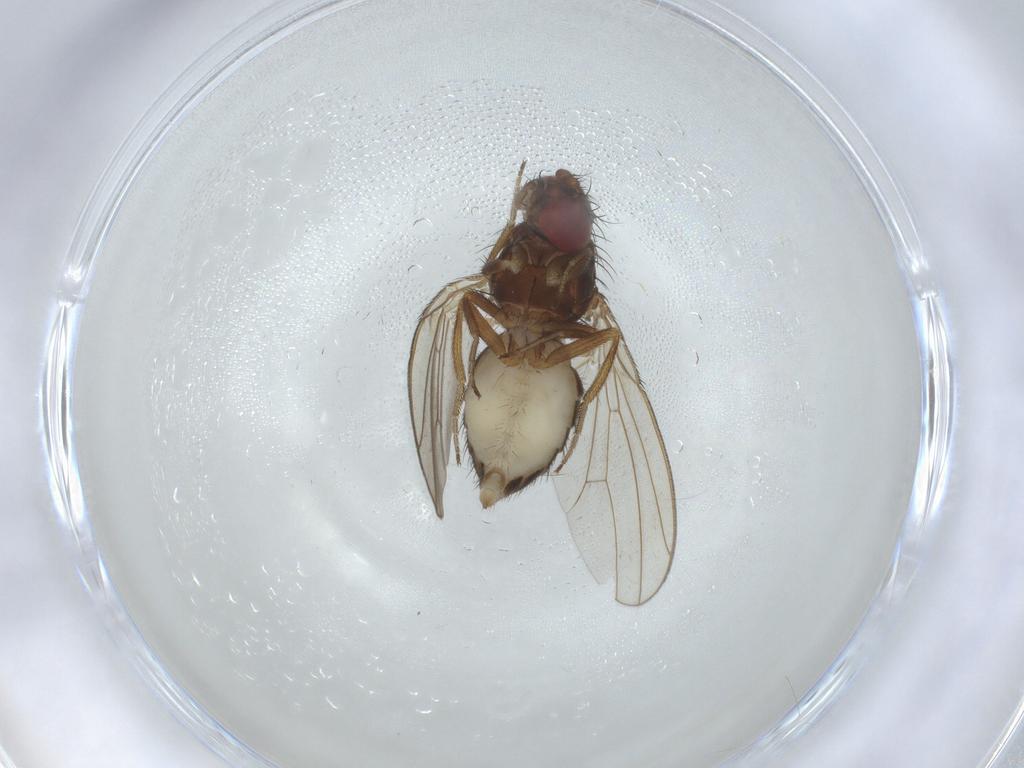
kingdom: Animalia
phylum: Arthropoda
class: Insecta
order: Diptera
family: Drosophilidae
